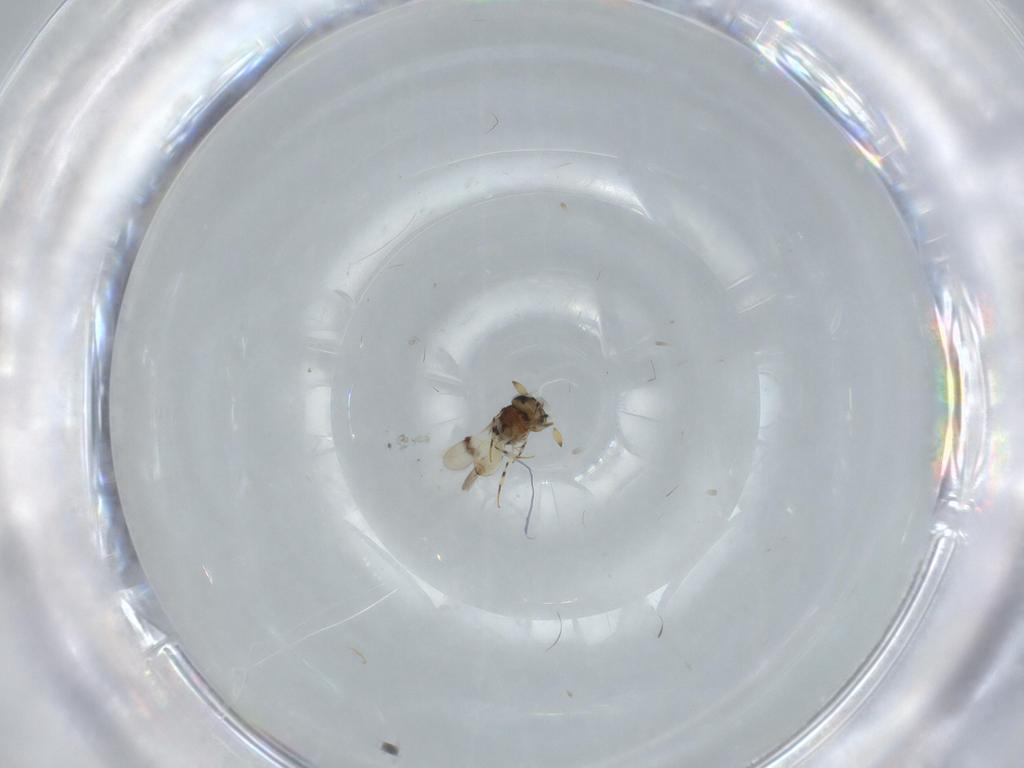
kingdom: Animalia
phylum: Arthropoda
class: Insecta
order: Hymenoptera
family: Scelionidae
